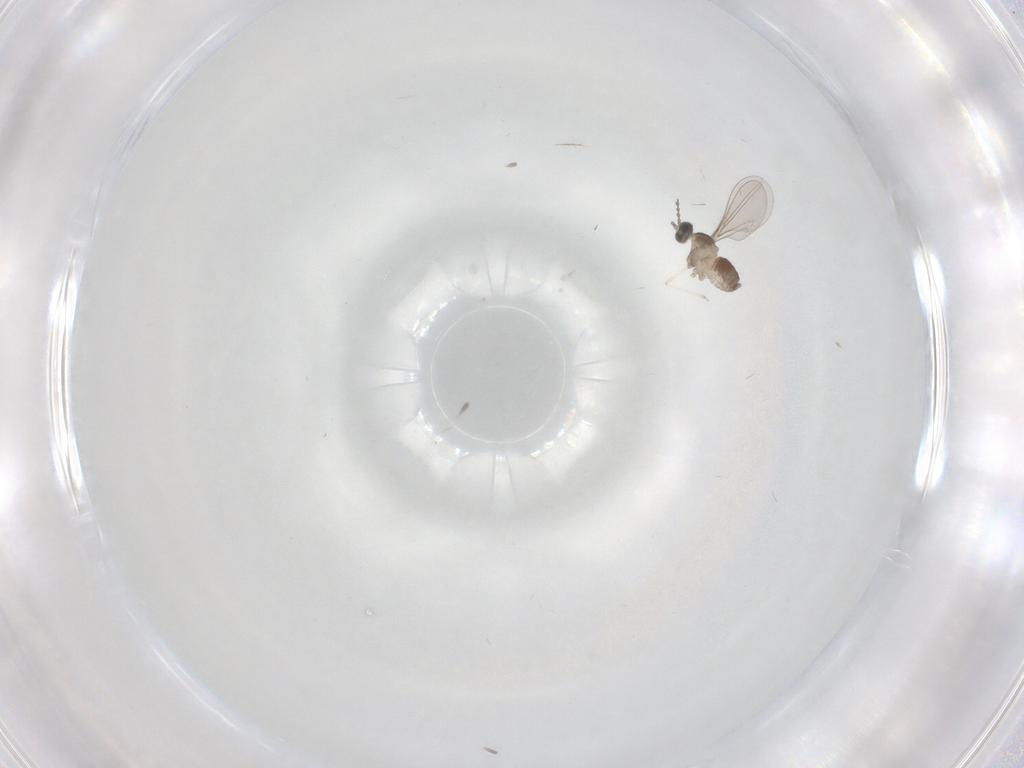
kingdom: Animalia
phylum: Arthropoda
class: Insecta
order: Diptera
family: Cecidomyiidae
